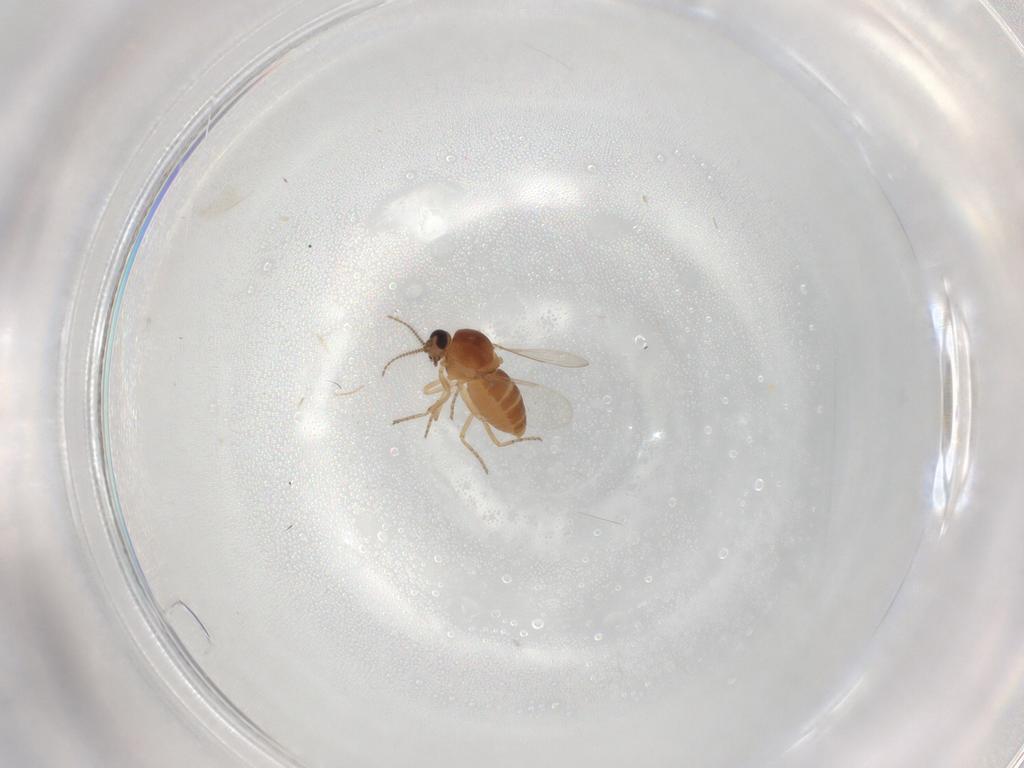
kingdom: Animalia
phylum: Arthropoda
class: Insecta
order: Diptera
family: Ceratopogonidae
